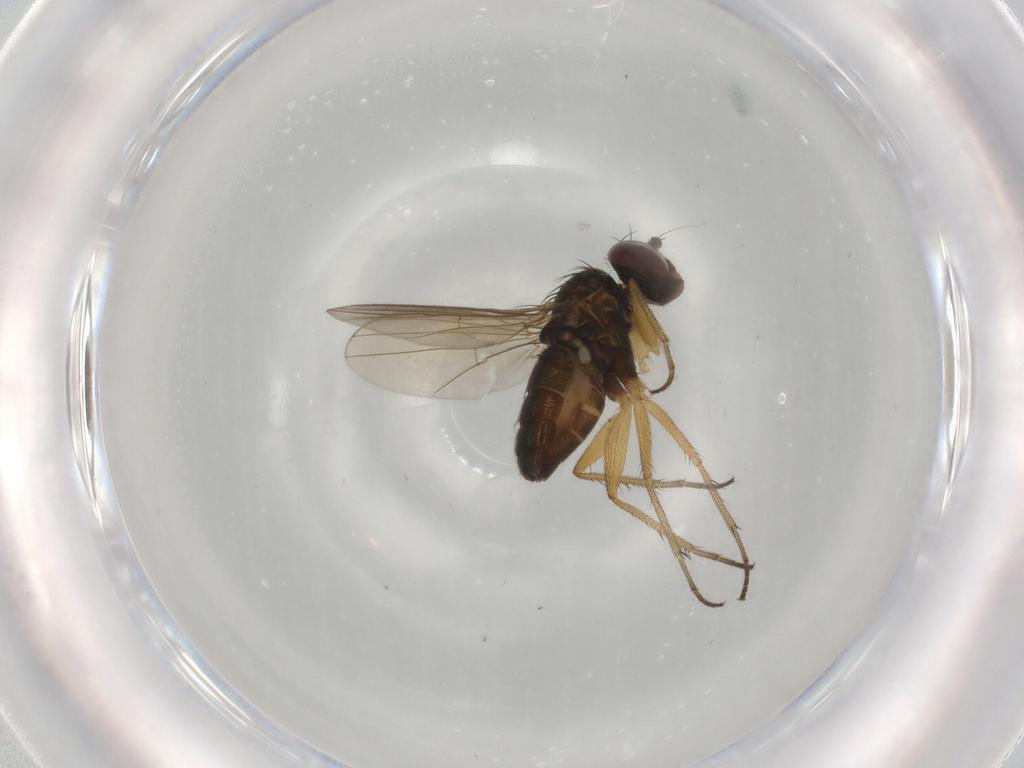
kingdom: Animalia
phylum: Arthropoda
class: Insecta
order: Diptera
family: Dolichopodidae
